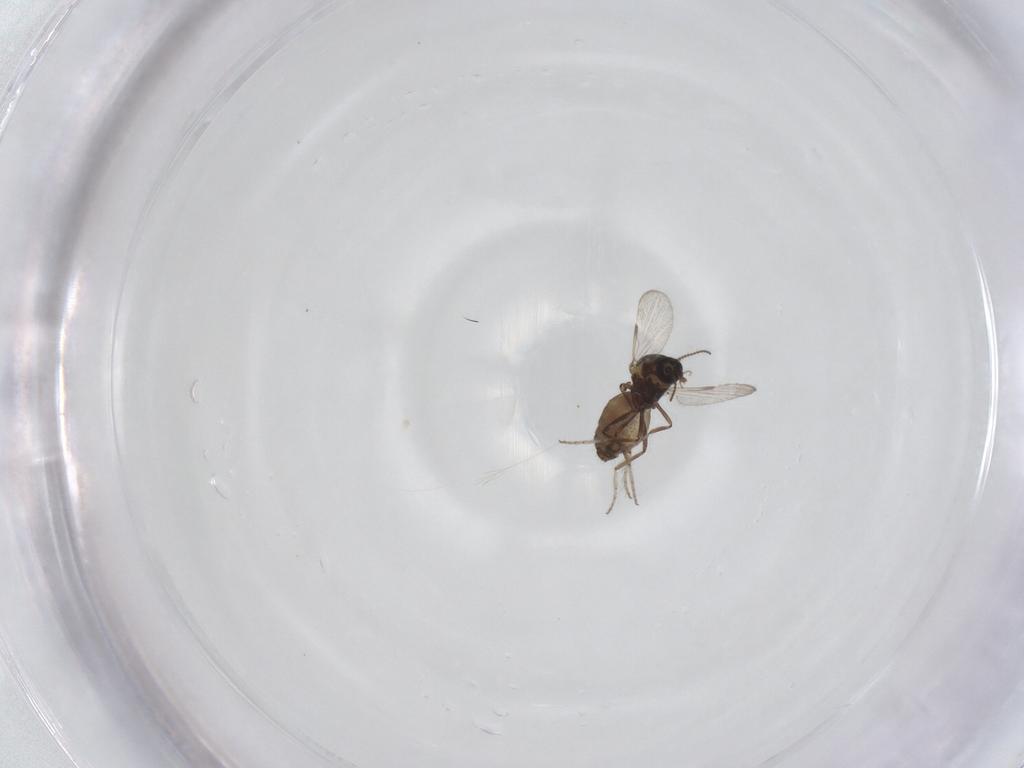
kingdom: Animalia
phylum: Arthropoda
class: Insecta
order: Diptera
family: Ceratopogonidae
